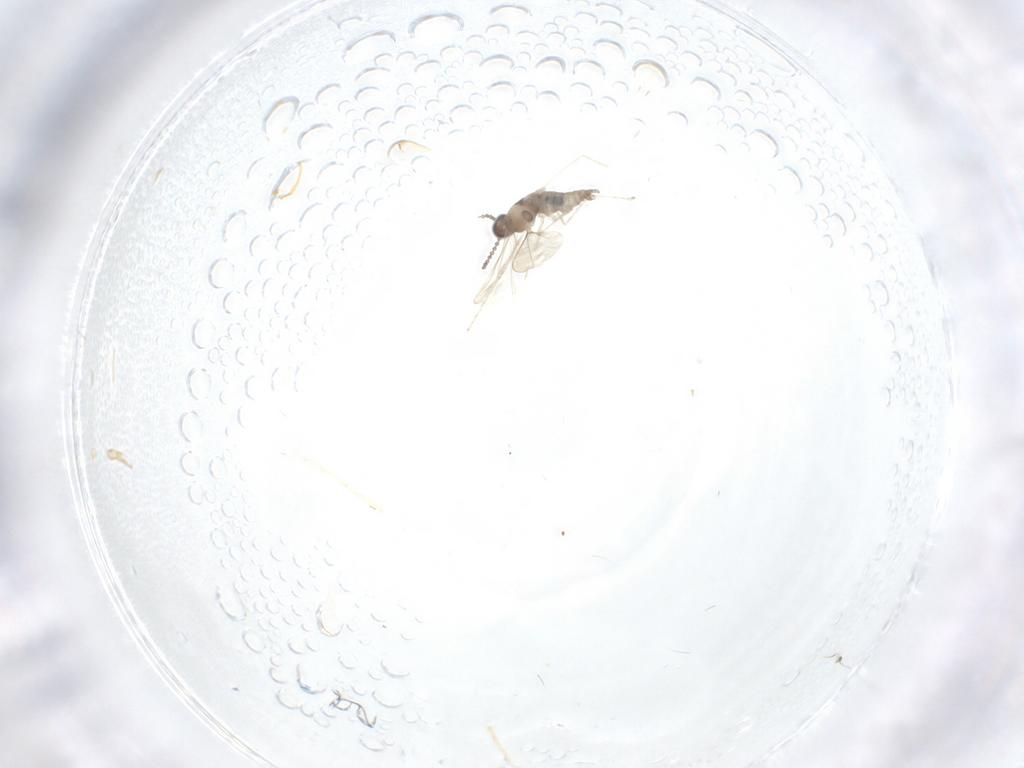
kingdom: Animalia
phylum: Arthropoda
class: Insecta
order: Diptera
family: Cecidomyiidae
